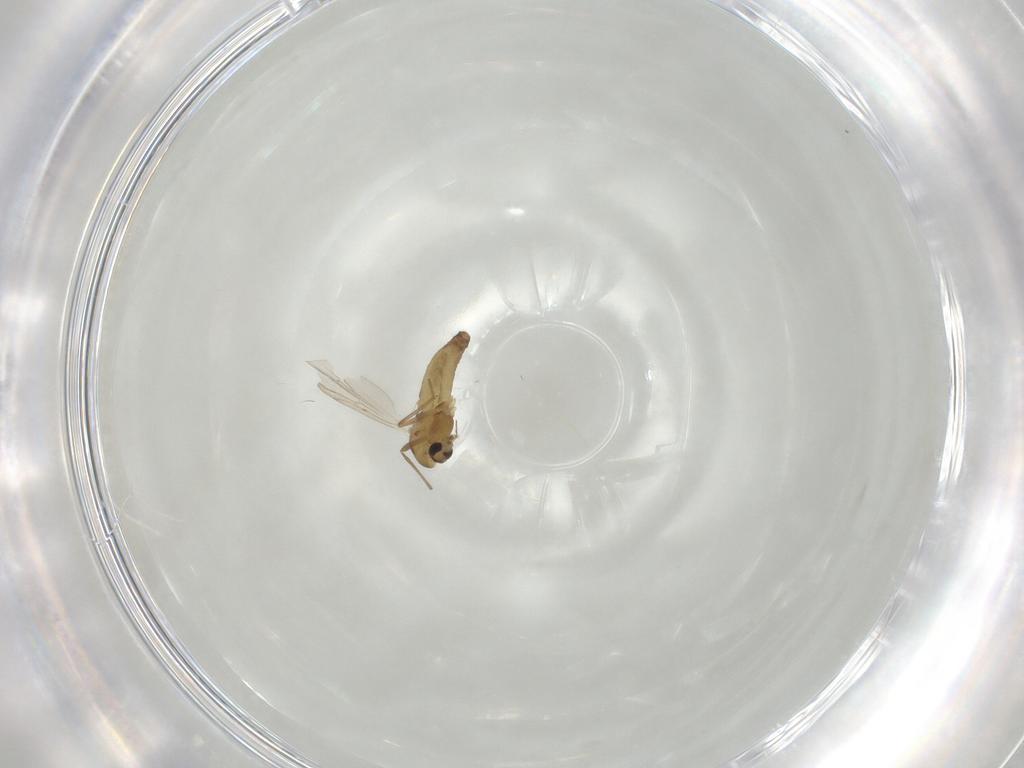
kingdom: Animalia
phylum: Arthropoda
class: Insecta
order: Diptera
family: Chironomidae
